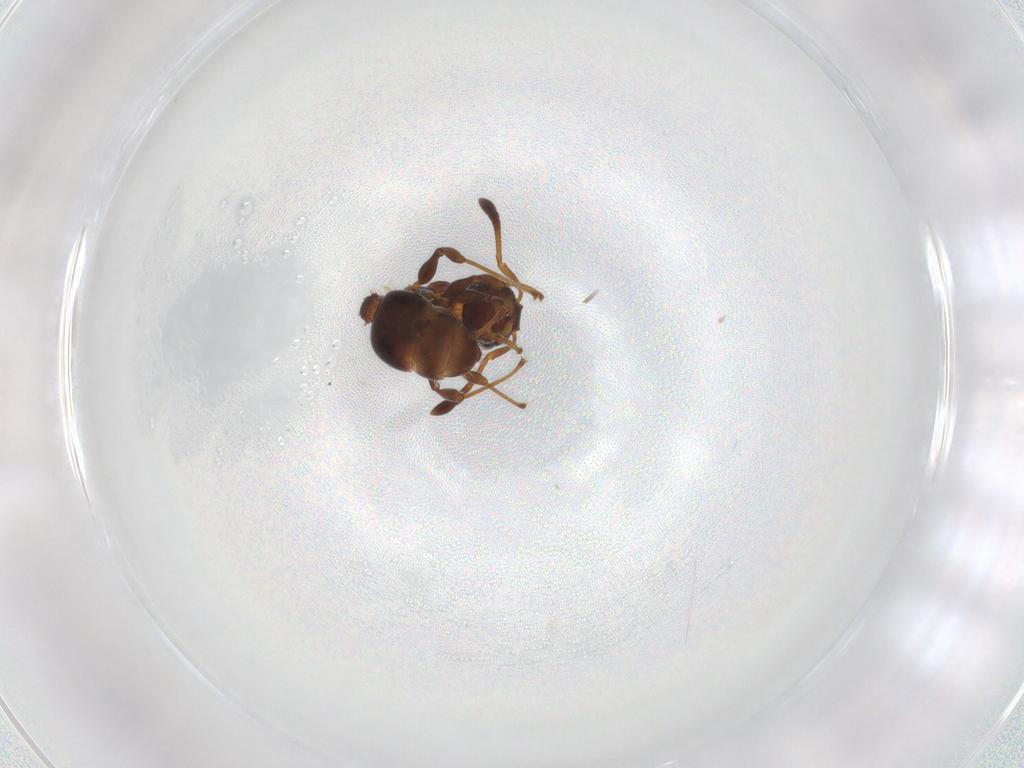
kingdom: Animalia
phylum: Arthropoda
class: Insecta
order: Hymenoptera
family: Formicidae
